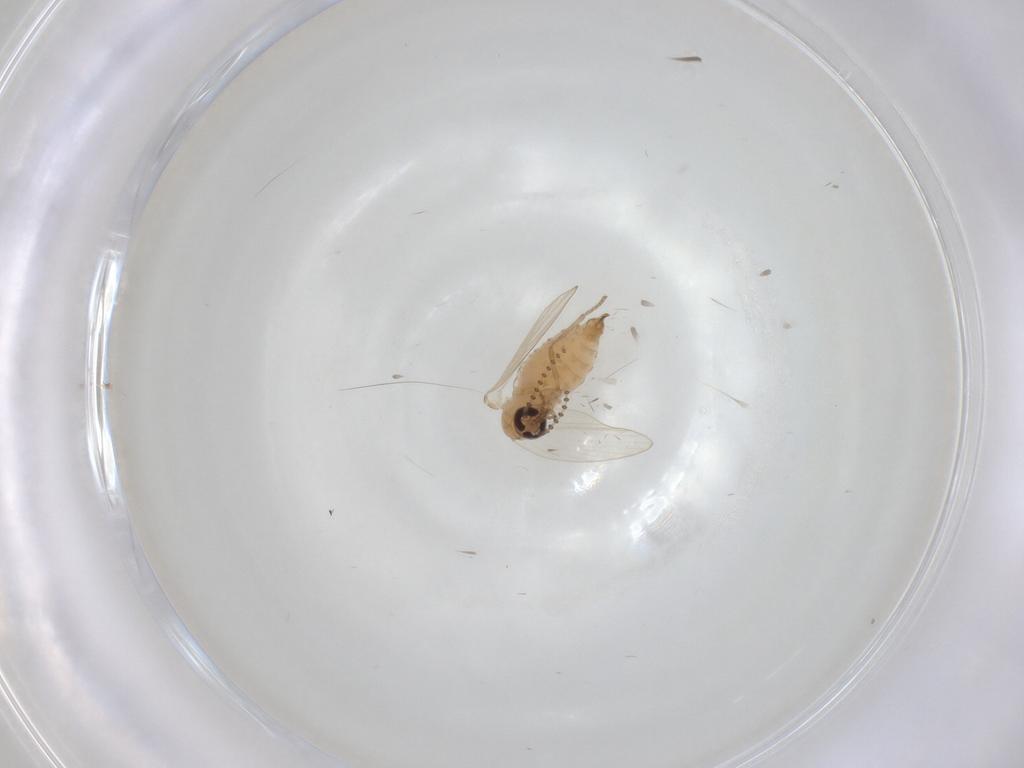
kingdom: Animalia
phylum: Arthropoda
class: Insecta
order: Diptera
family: Psychodidae
